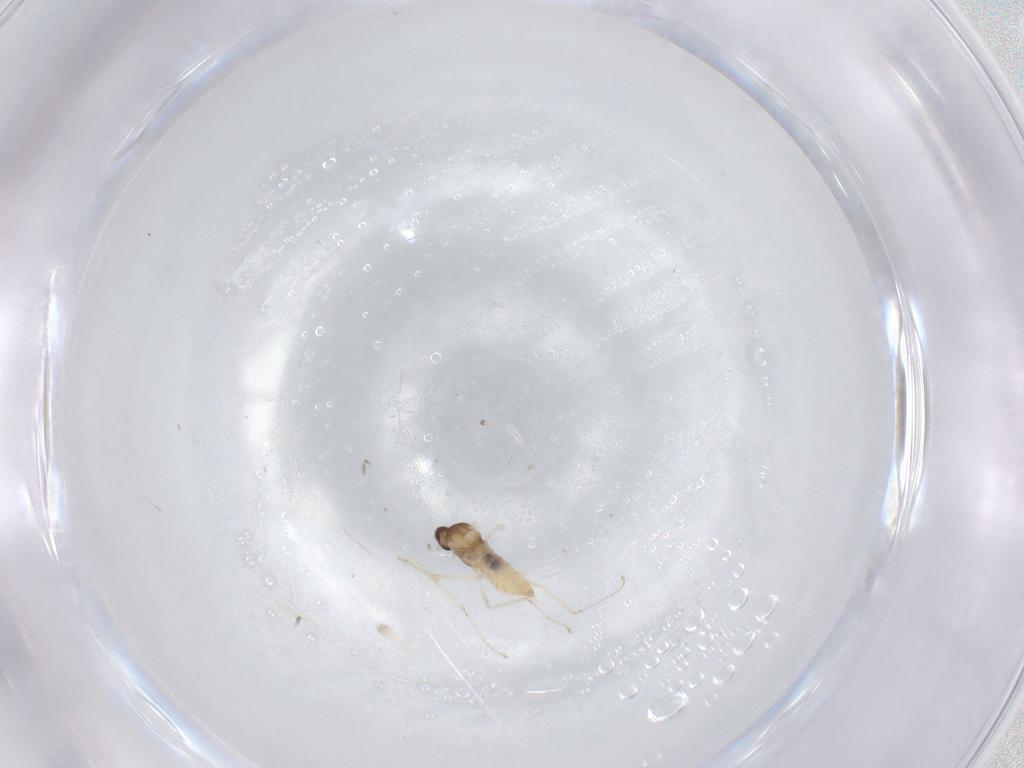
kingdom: Animalia
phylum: Arthropoda
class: Insecta
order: Diptera
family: Cecidomyiidae
